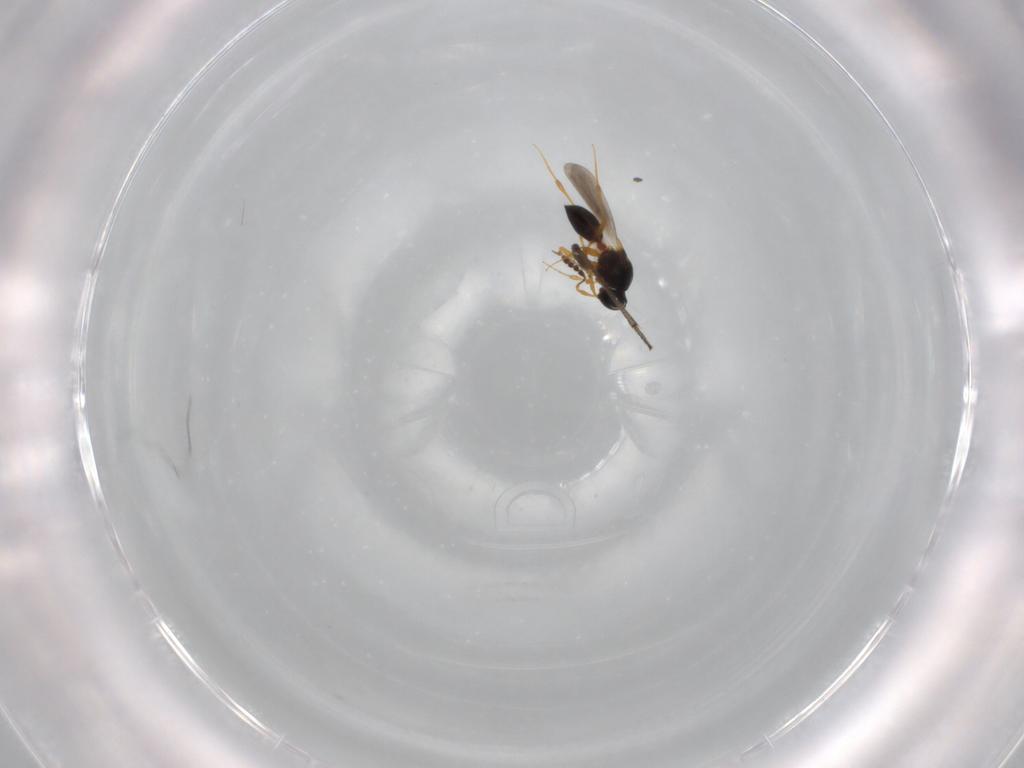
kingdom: Animalia
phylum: Arthropoda
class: Insecta
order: Hymenoptera
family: Platygastridae
